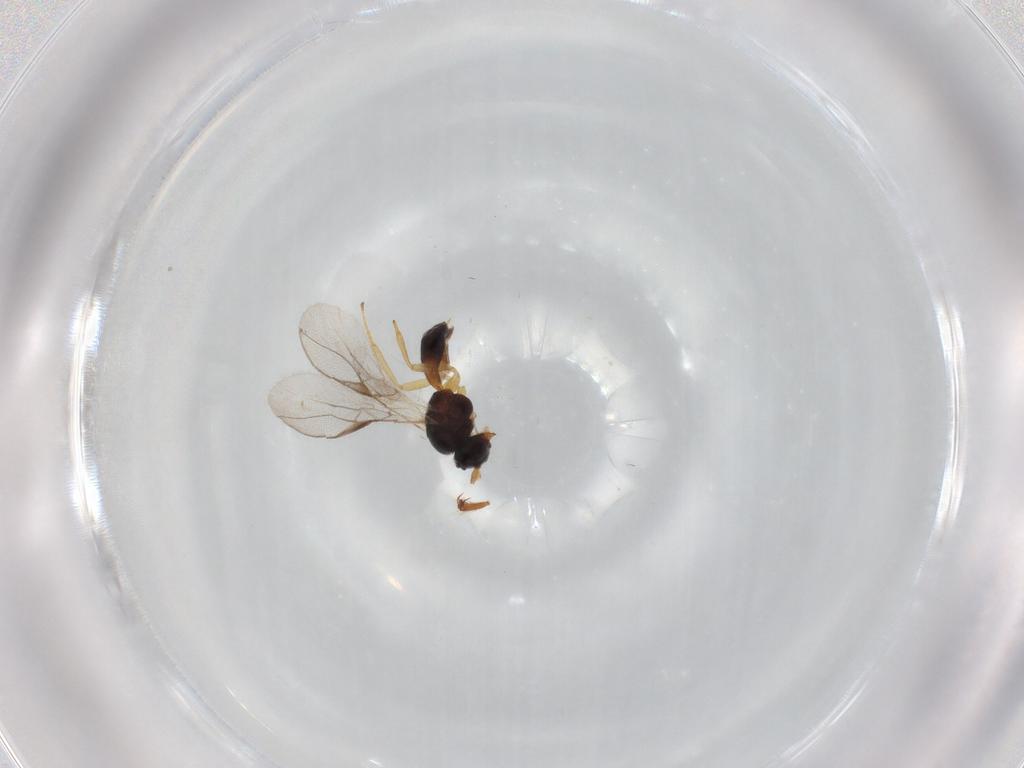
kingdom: Animalia
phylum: Arthropoda
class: Insecta
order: Hymenoptera
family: Braconidae
